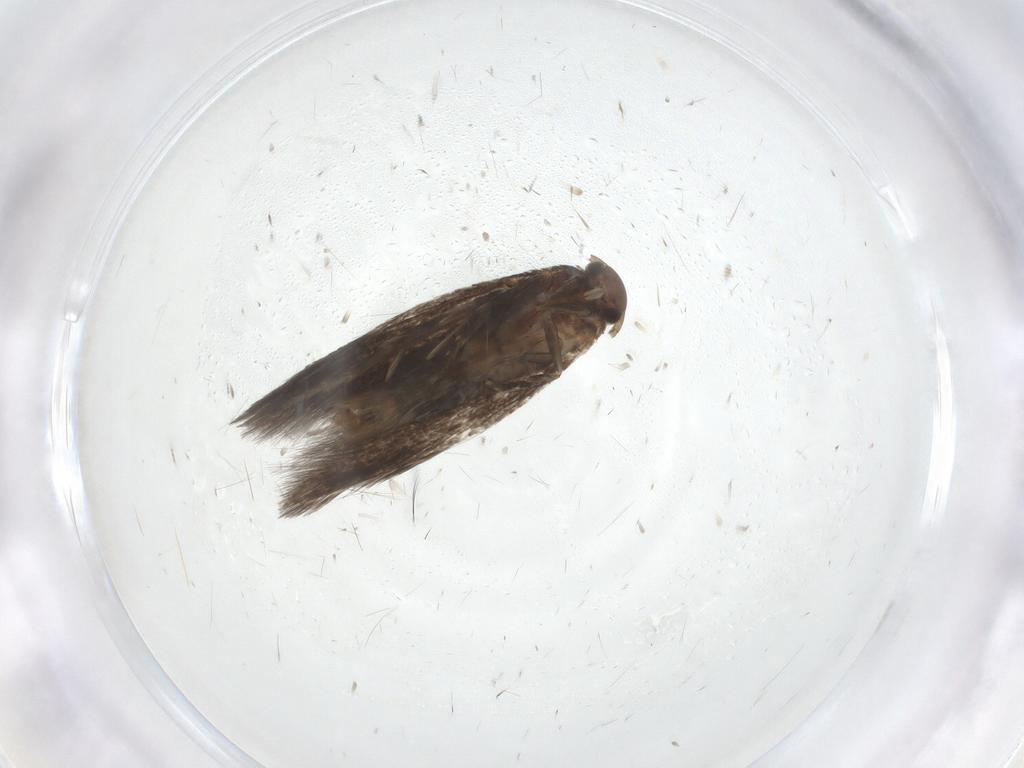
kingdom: Animalia
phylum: Arthropoda
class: Insecta
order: Lepidoptera
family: Elachistidae
